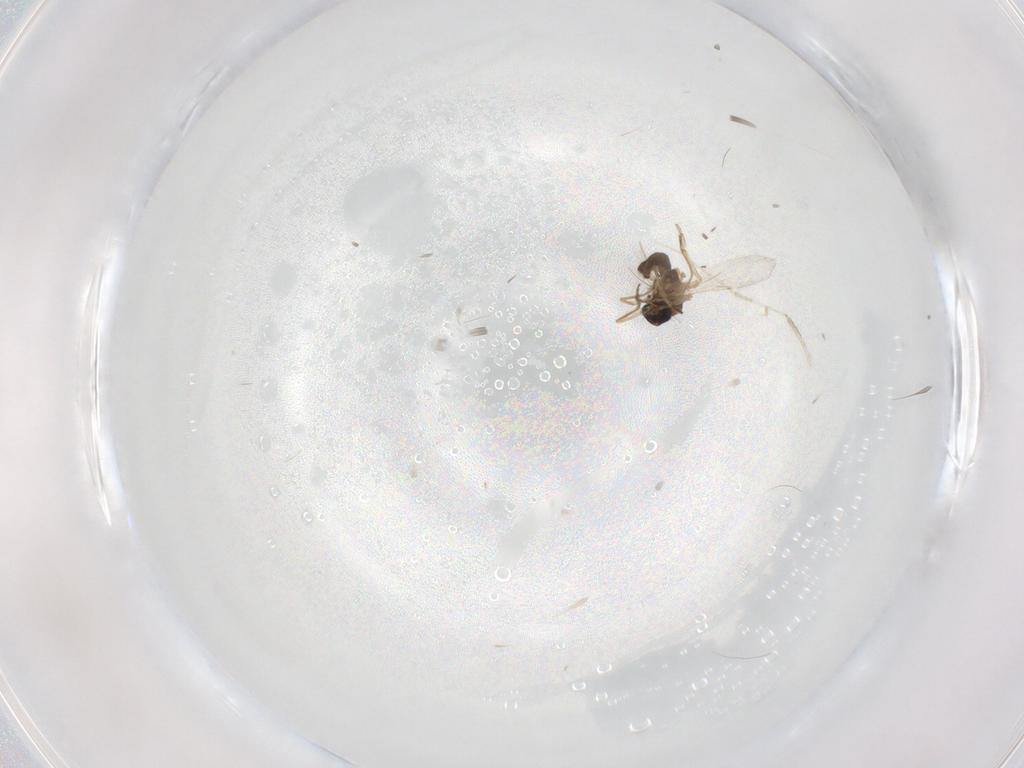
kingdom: Animalia
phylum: Arthropoda
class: Insecta
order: Diptera
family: Ceratopogonidae
